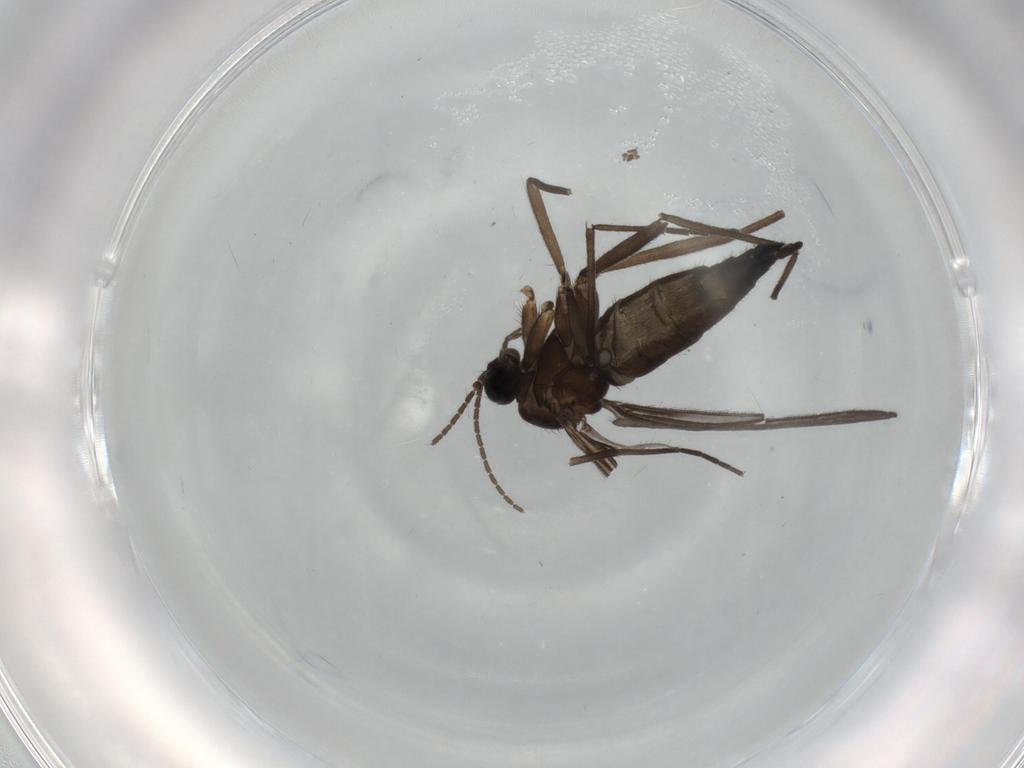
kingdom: Animalia
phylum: Arthropoda
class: Insecta
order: Diptera
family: Sciaridae
